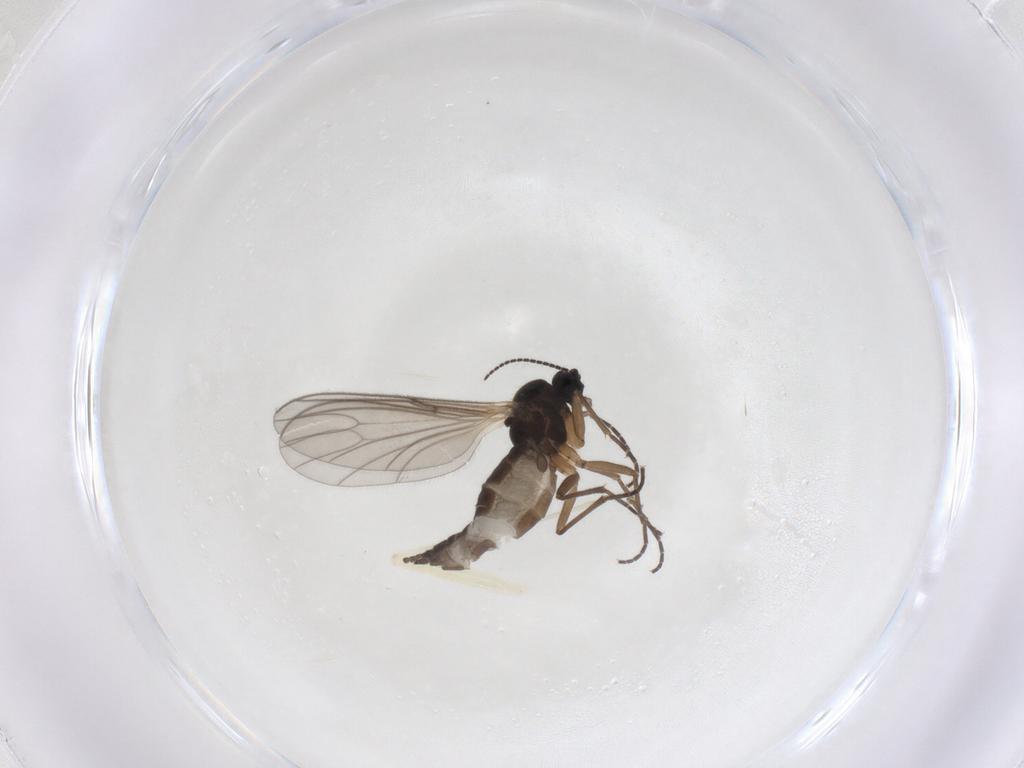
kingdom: Animalia
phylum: Arthropoda
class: Insecta
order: Diptera
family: Sciaridae
